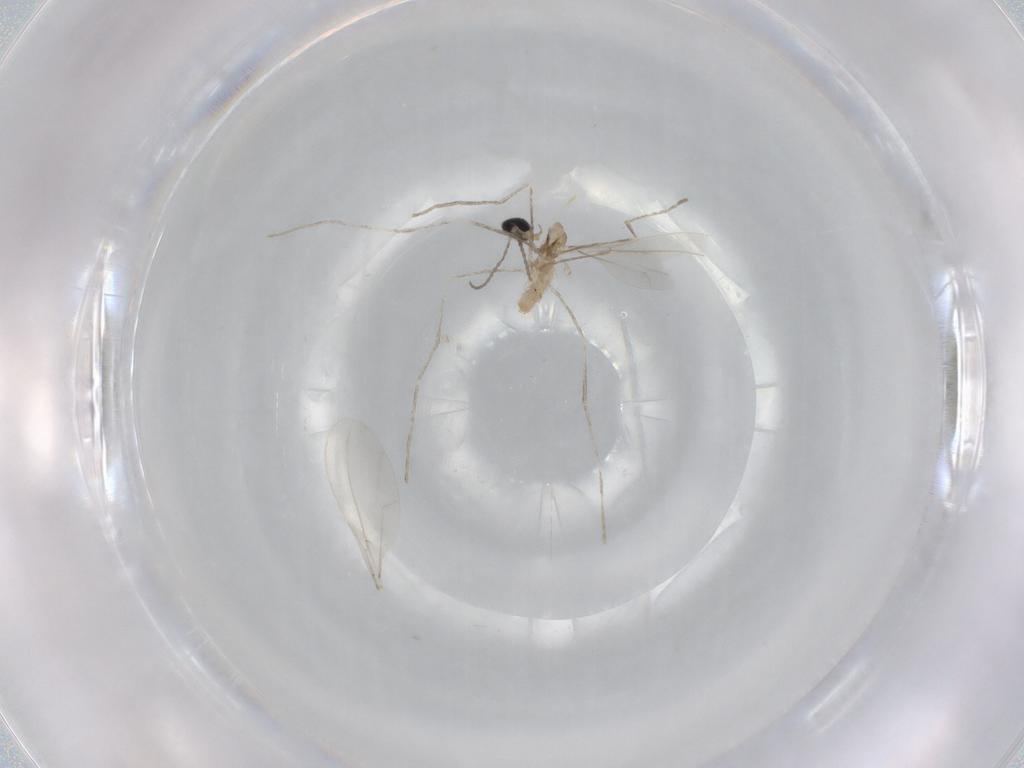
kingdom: Animalia
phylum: Arthropoda
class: Insecta
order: Diptera
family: Cecidomyiidae
